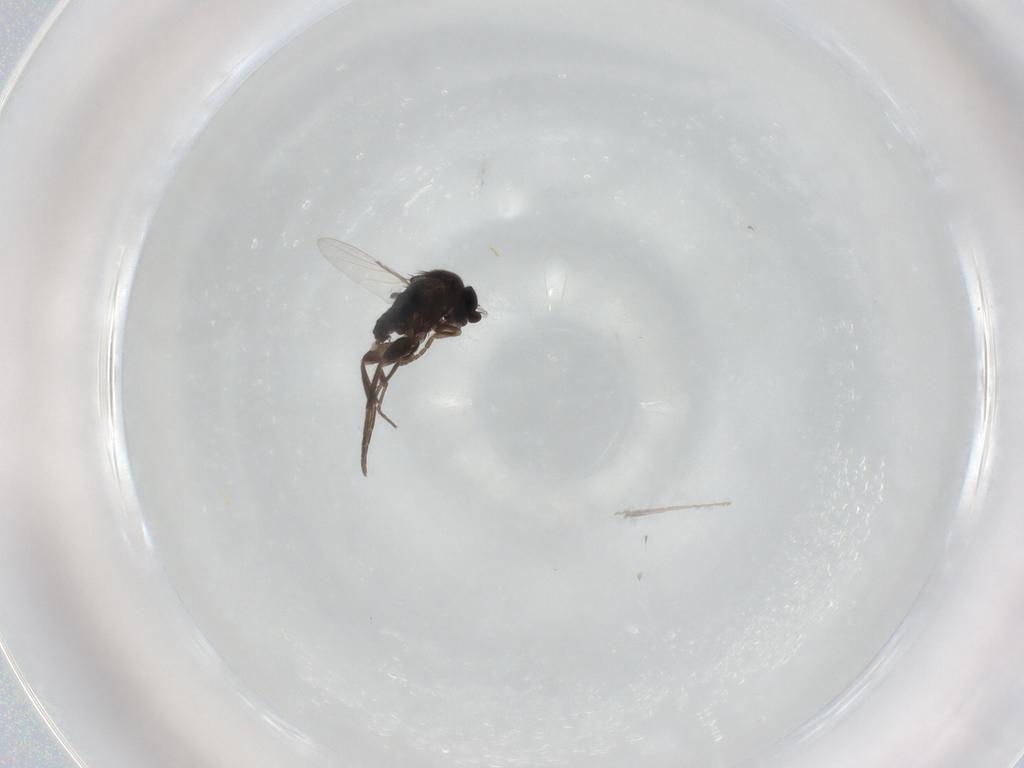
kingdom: Animalia
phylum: Arthropoda
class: Insecta
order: Diptera
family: Phoridae
